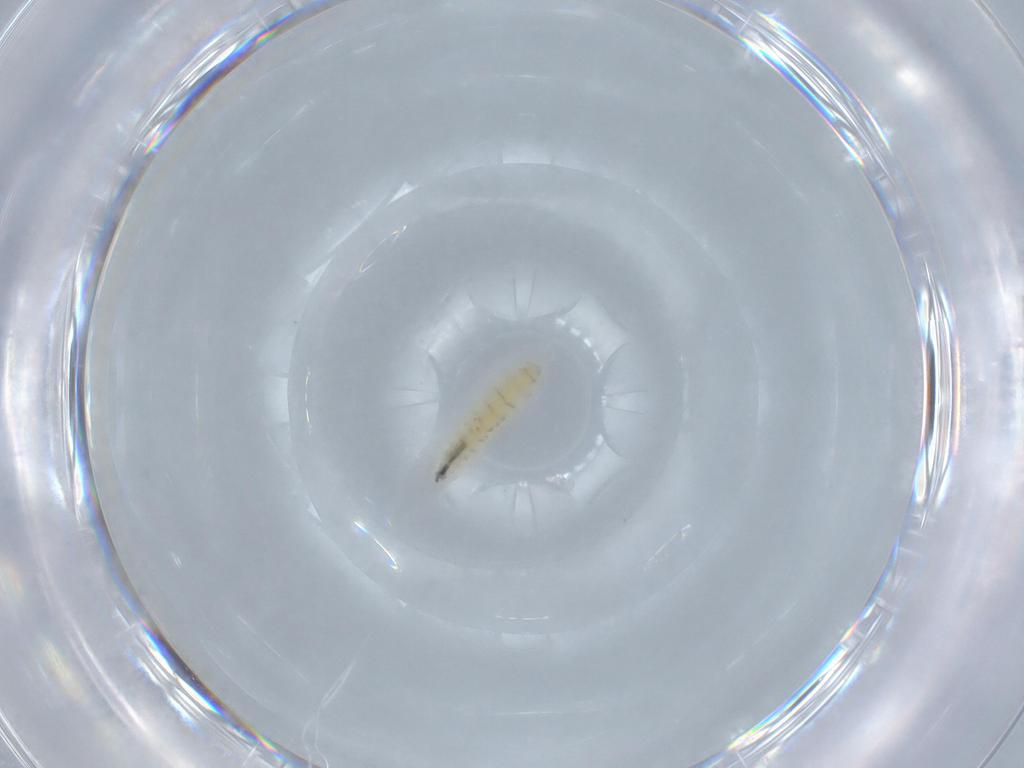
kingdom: Animalia
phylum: Arthropoda
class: Insecta
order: Diptera
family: Sarcophagidae
